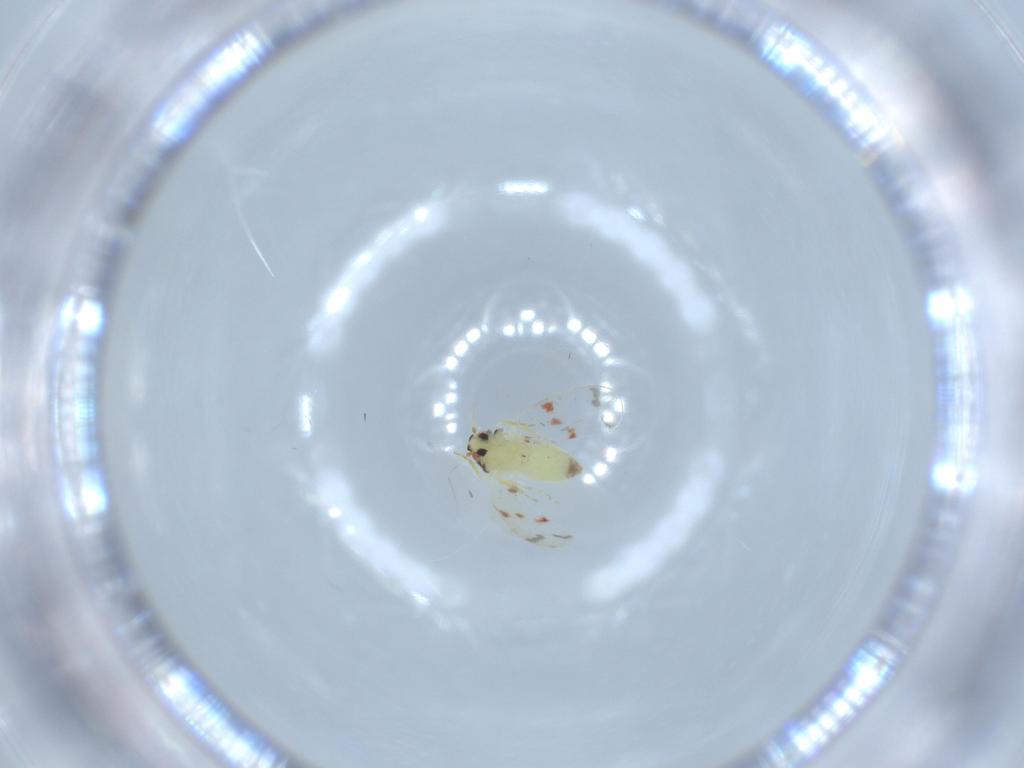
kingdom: Animalia
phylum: Arthropoda
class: Insecta
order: Hemiptera
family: Aleyrodidae
